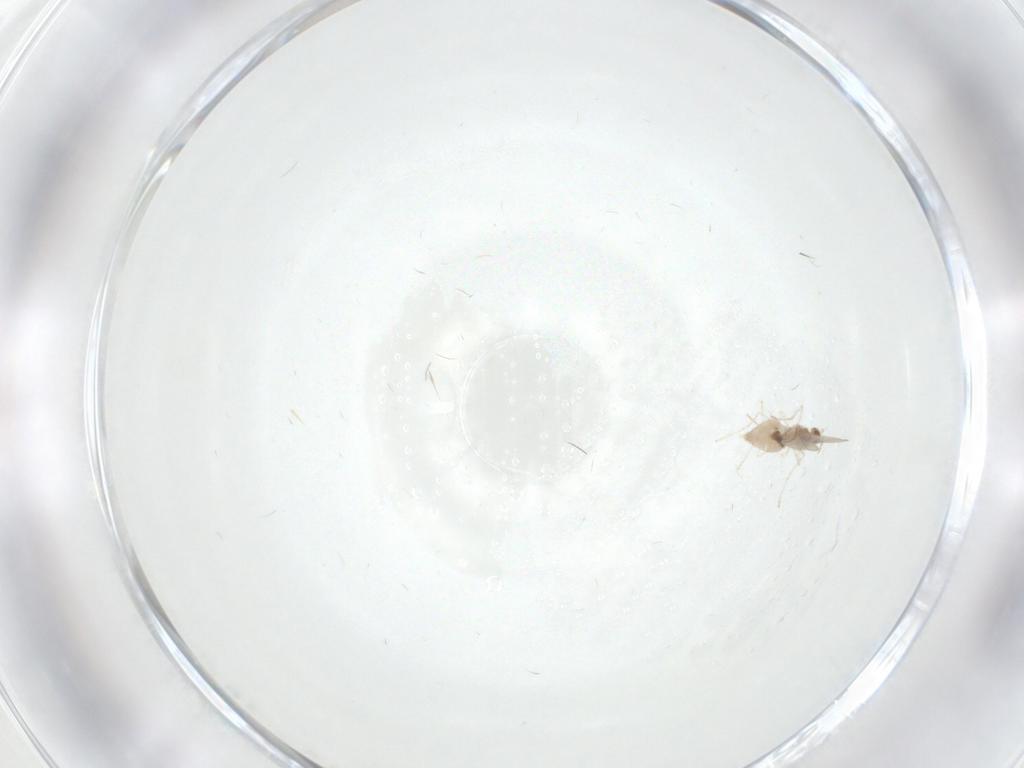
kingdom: Animalia
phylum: Arthropoda
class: Insecta
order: Diptera
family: Cecidomyiidae
